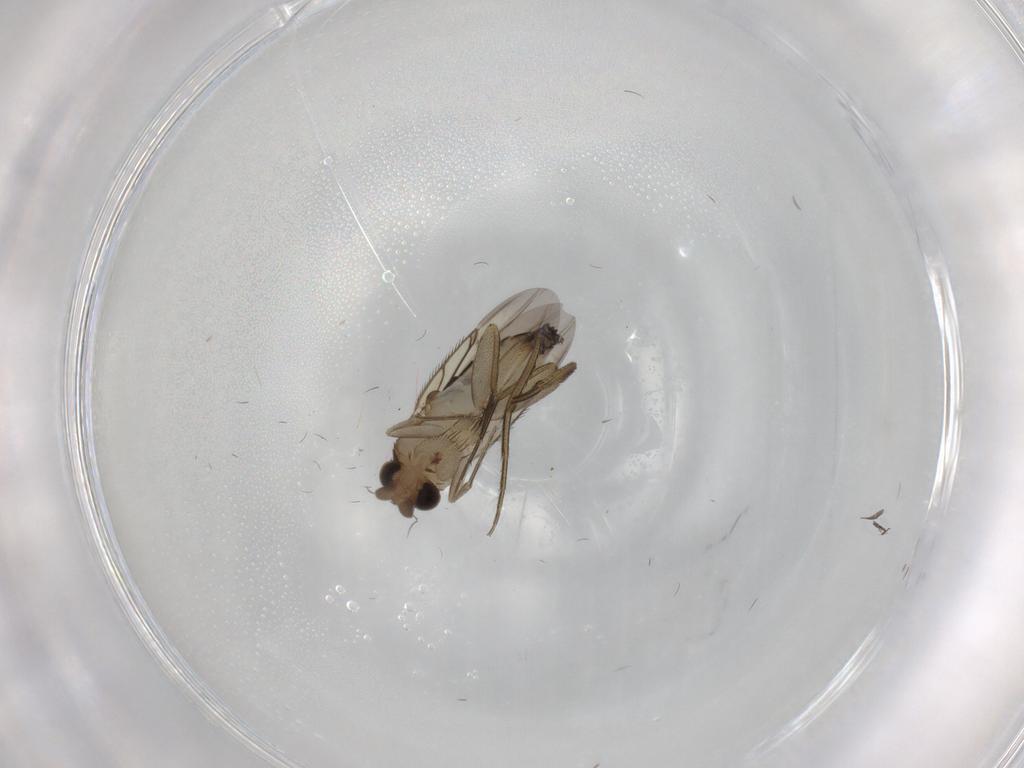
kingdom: Animalia
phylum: Arthropoda
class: Insecta
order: Diptera
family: Phoridae
